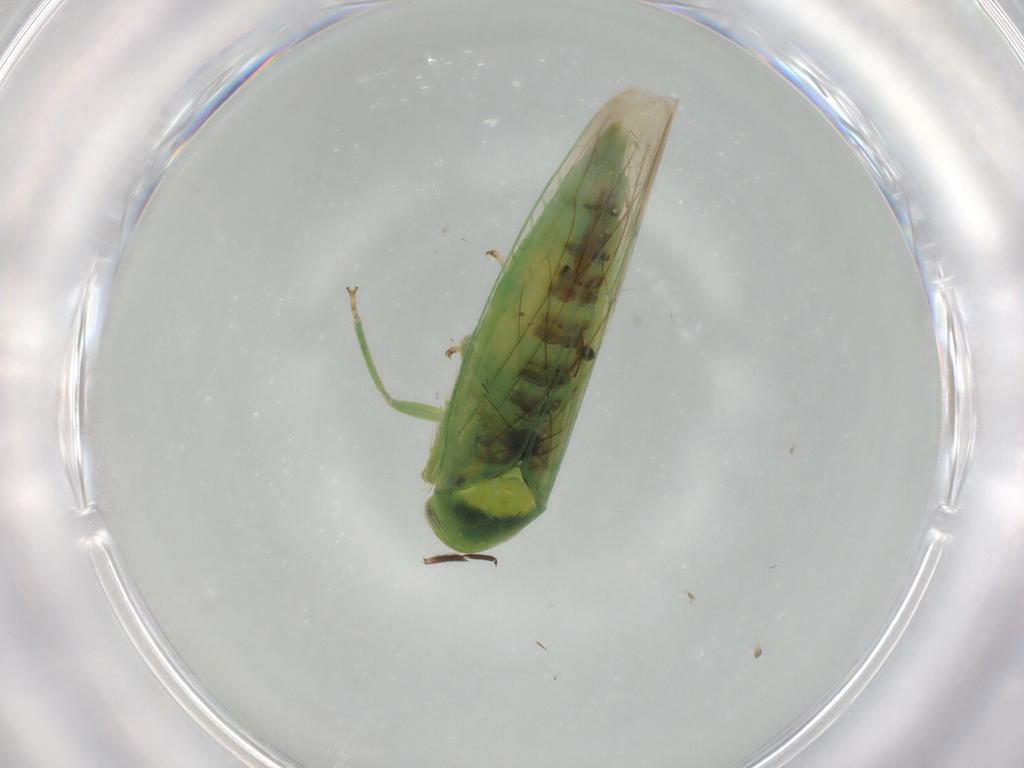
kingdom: Animalia
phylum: Arthropoda
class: Insecta
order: Hemiptera
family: Cicadellidae
